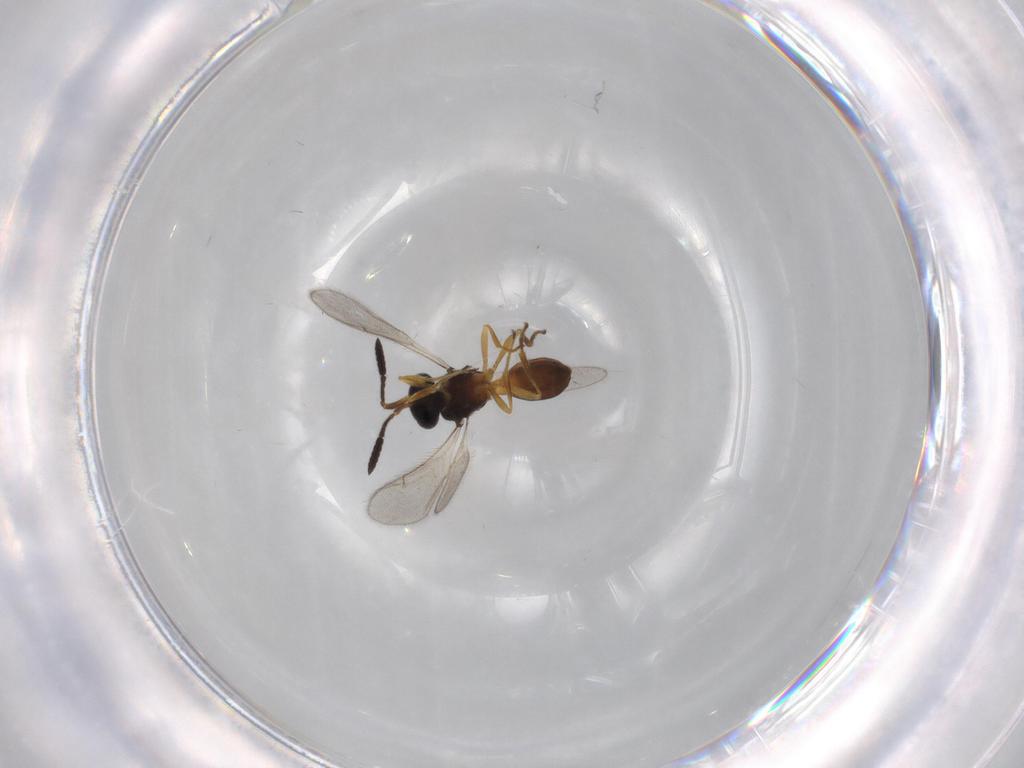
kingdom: Animalia
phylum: Arthropoda
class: Insecta
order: Hymenoptera
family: Scelionidae
